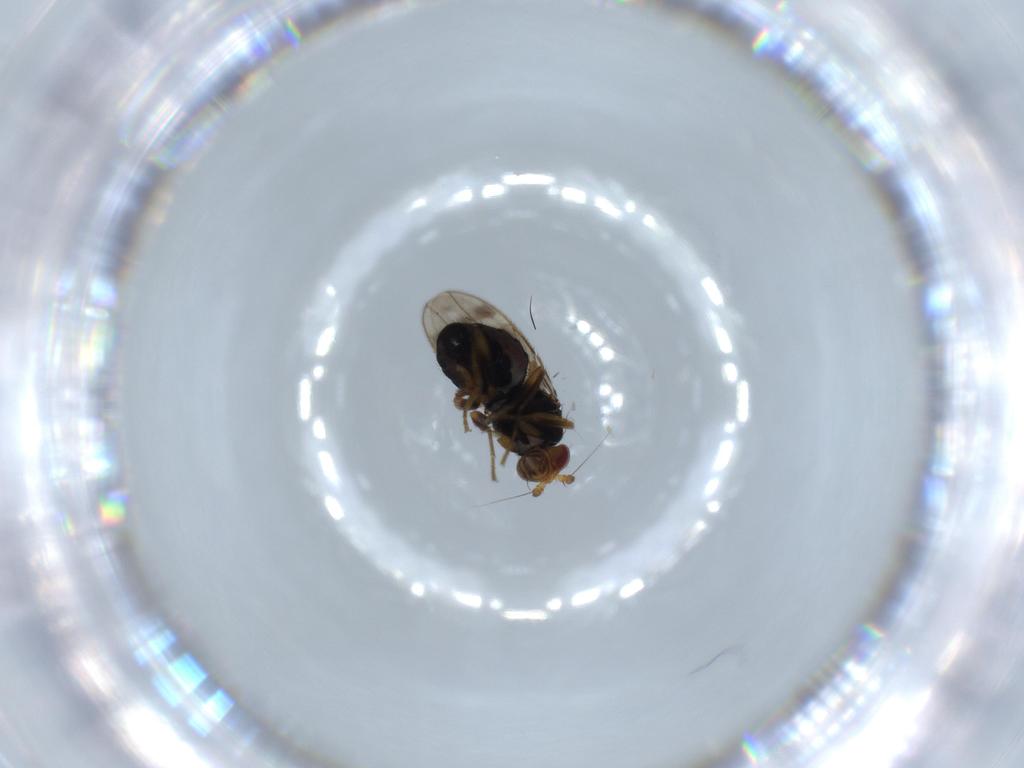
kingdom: Animalia
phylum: Arthropoda
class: Insecta
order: Diptera
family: Sphaeroceridae
